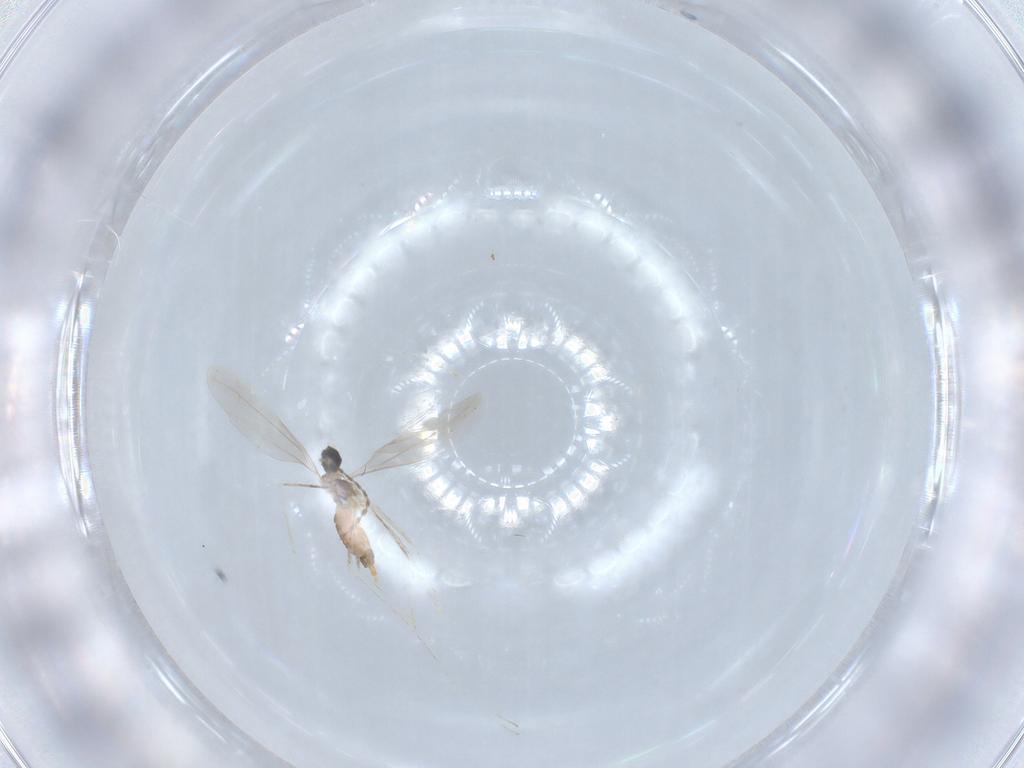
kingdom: Animalia
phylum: Arthropoda
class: Insecta
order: Diptera
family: Cecidomyiidae
